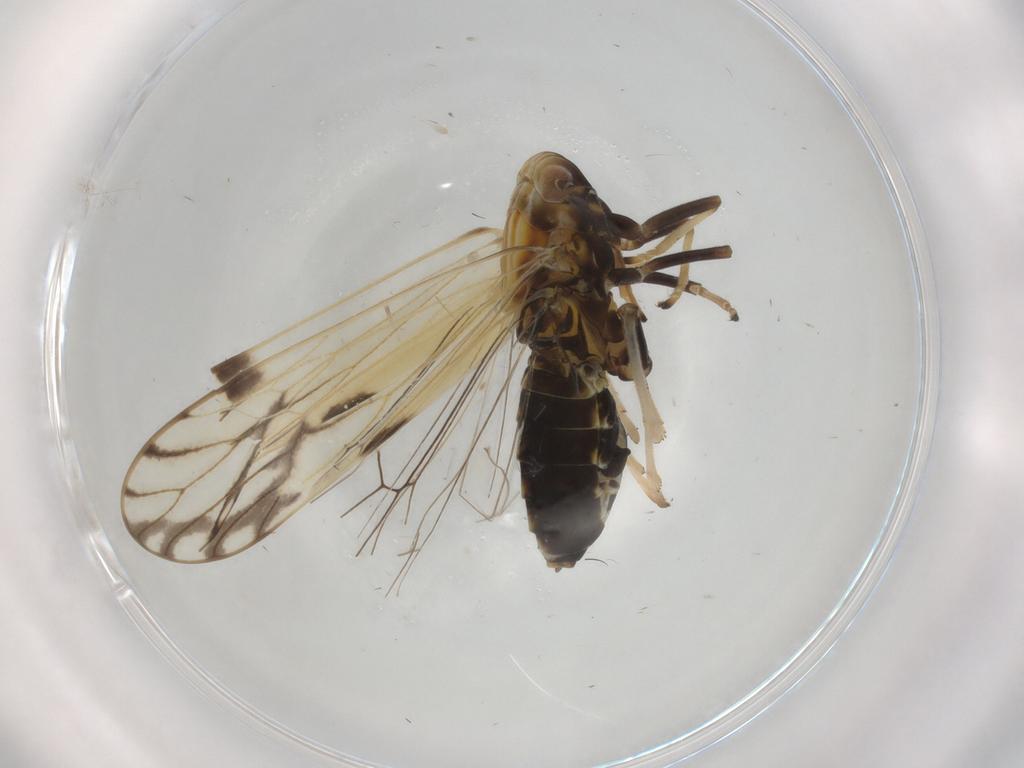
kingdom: Animalia
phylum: Arthropoda
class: Insecta
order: Hemiptera
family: Delphacidae
